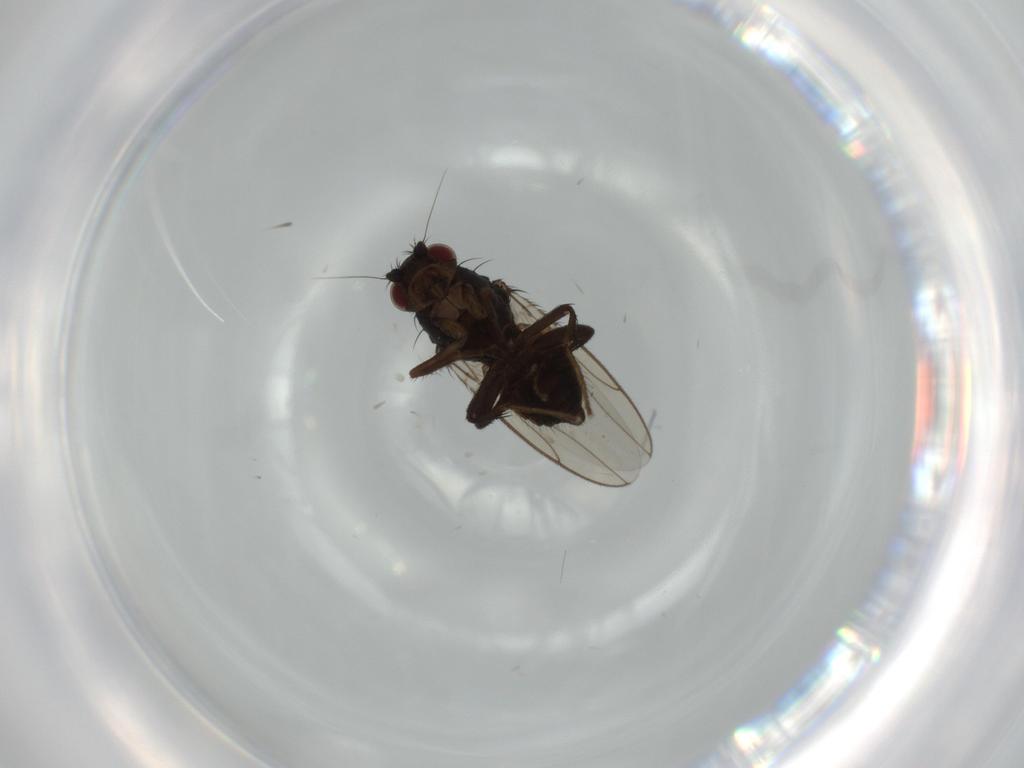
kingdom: Animalia
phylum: Arthropoda
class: Insecta
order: Diptera
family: Sphaeroceridae
